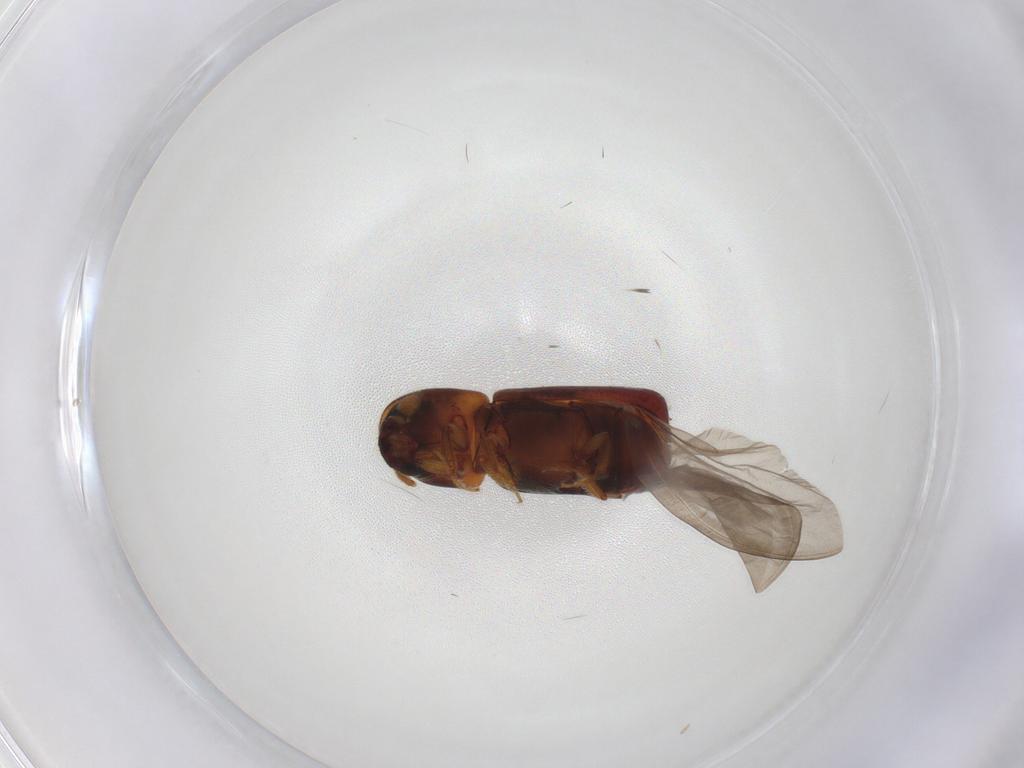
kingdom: Animalia
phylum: Arthropoda
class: Insecta
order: Coleoptera
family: Curculionidae
